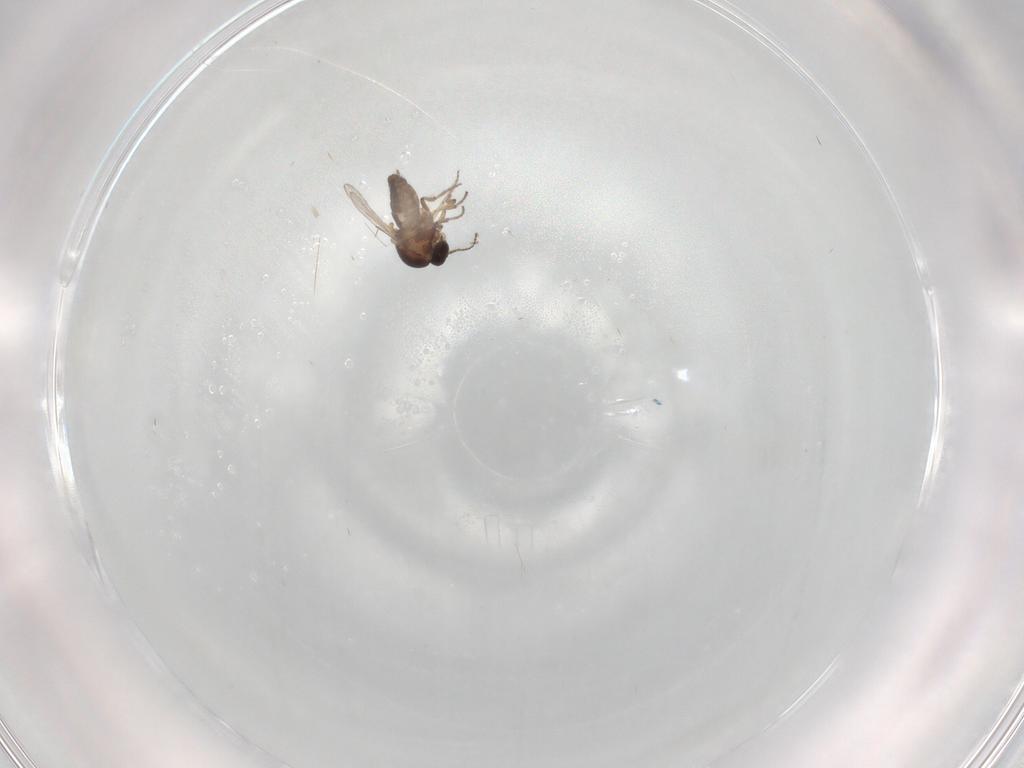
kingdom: Animalia
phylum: Arthropoda
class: Insecta
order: Diptera
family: Ceratopogonidae
